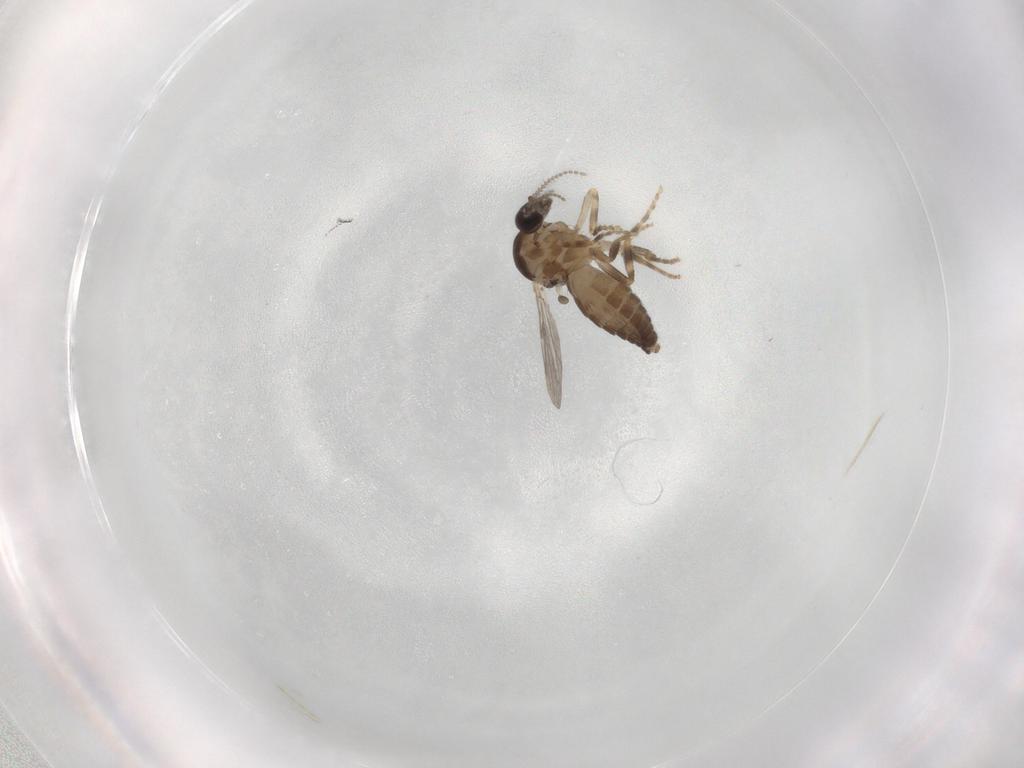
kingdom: Animalia
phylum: Arthropoda
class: Insecta
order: Diptera
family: Ceratopogonidae
